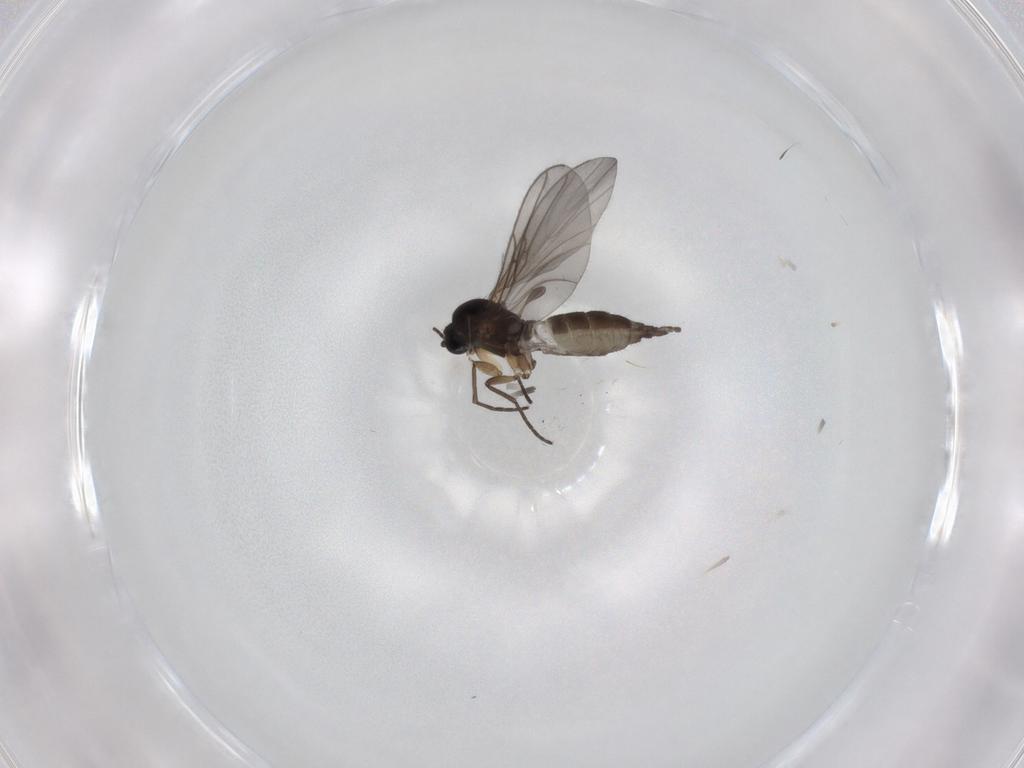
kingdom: Animalia
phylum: Arthropoda
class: Insecta
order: Diptera
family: Sciaridae
